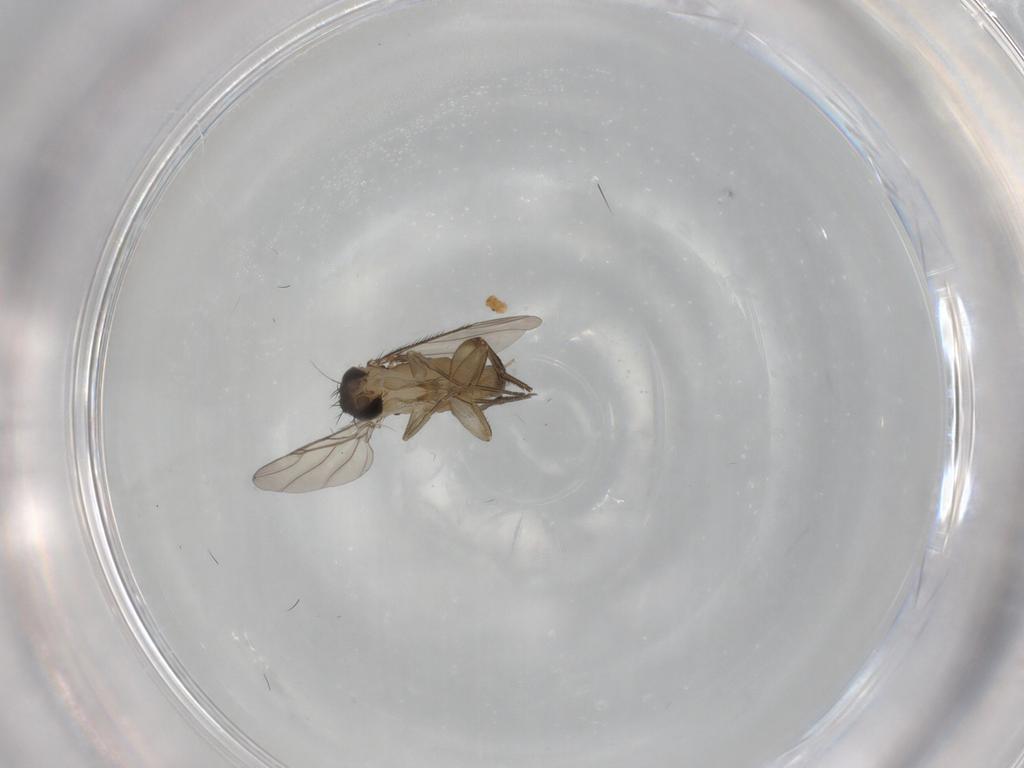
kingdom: Animalia
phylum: Arthropoda
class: Insecta
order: Diptera
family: Phoridae
